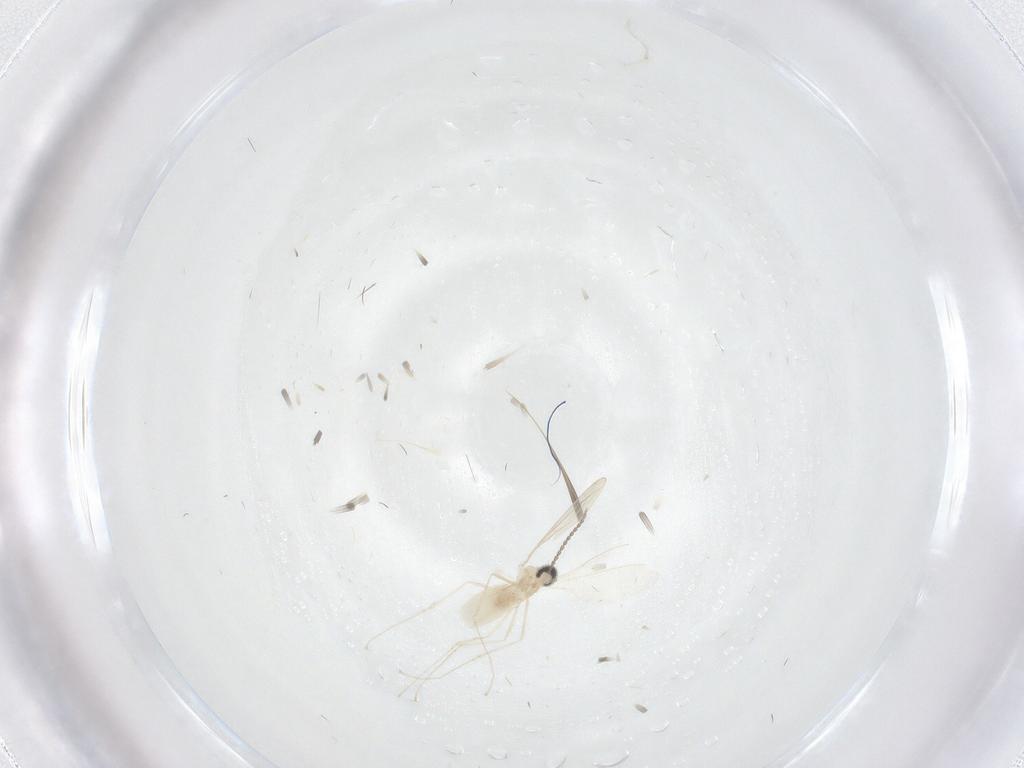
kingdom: Animalia
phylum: Arthropoda
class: Insecta
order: Diptera
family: Cecidomyiidae
